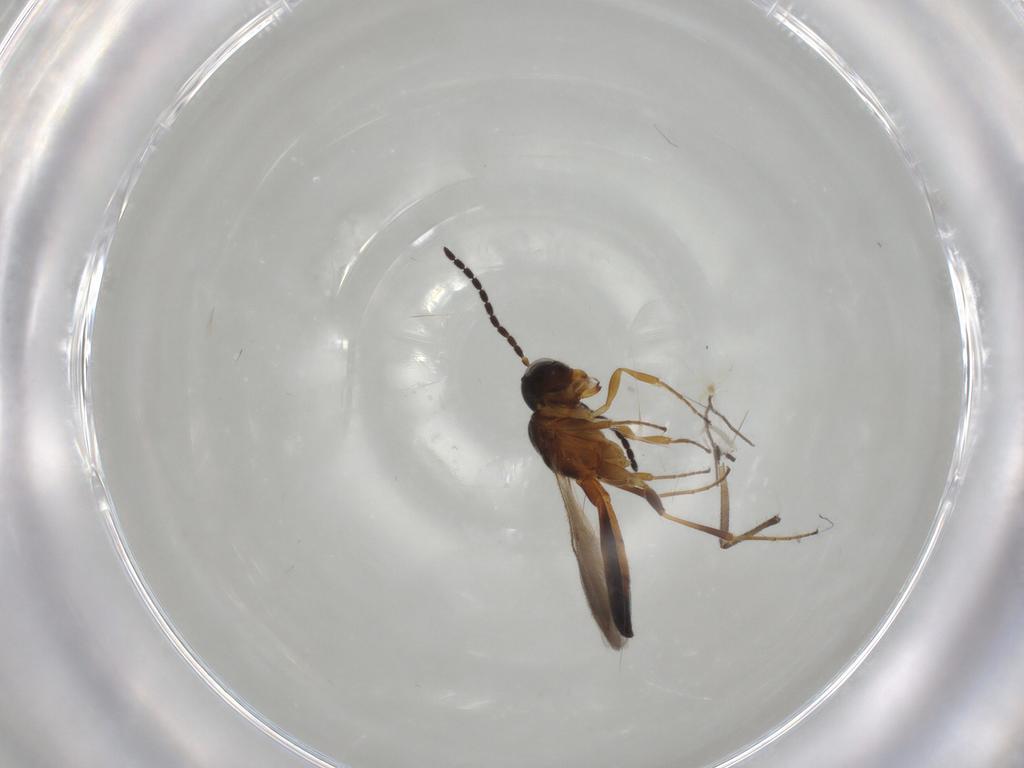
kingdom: Animalia
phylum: Arthropoda
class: Insecta
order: Hymenoptera
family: Scelionidae
